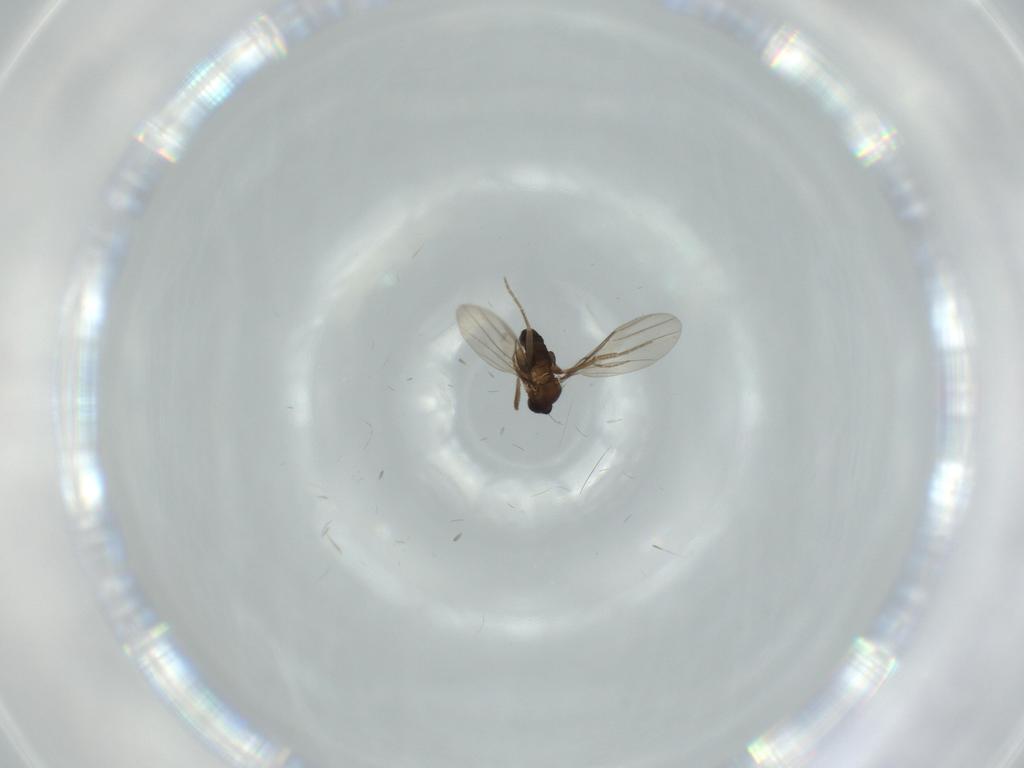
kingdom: Animalia
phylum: Arthropoda
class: Insecta
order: Diptera
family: Phoridae
